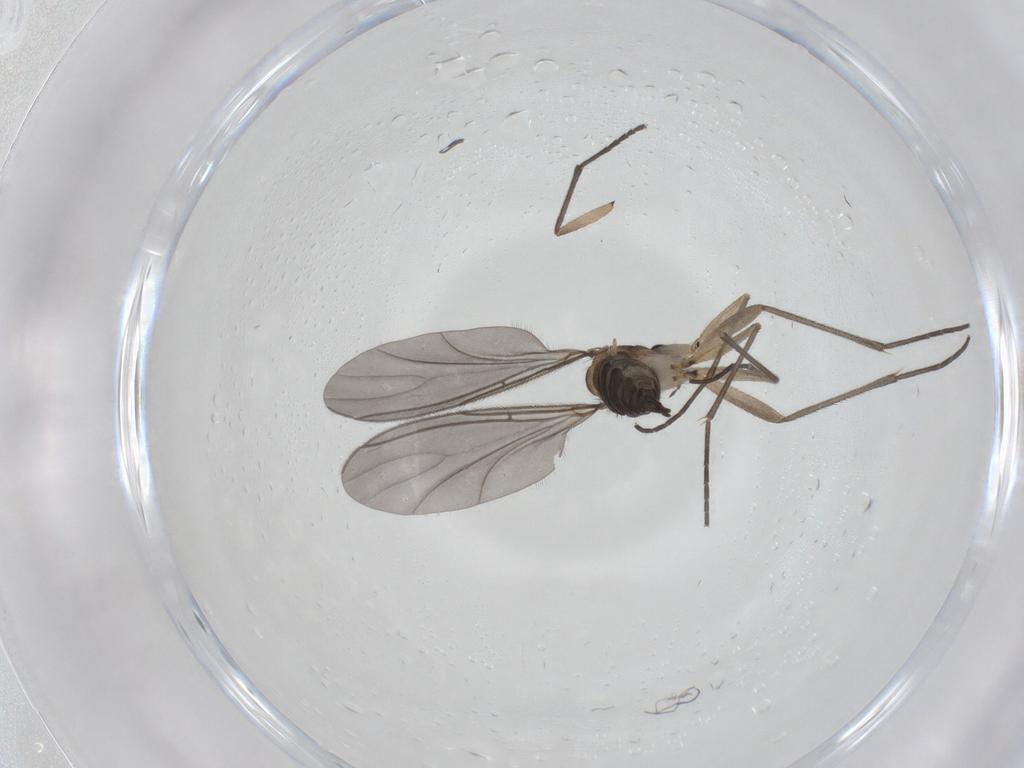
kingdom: Animalia
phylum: Arthropoda
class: Insecta
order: Diptera
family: Sciaridae
